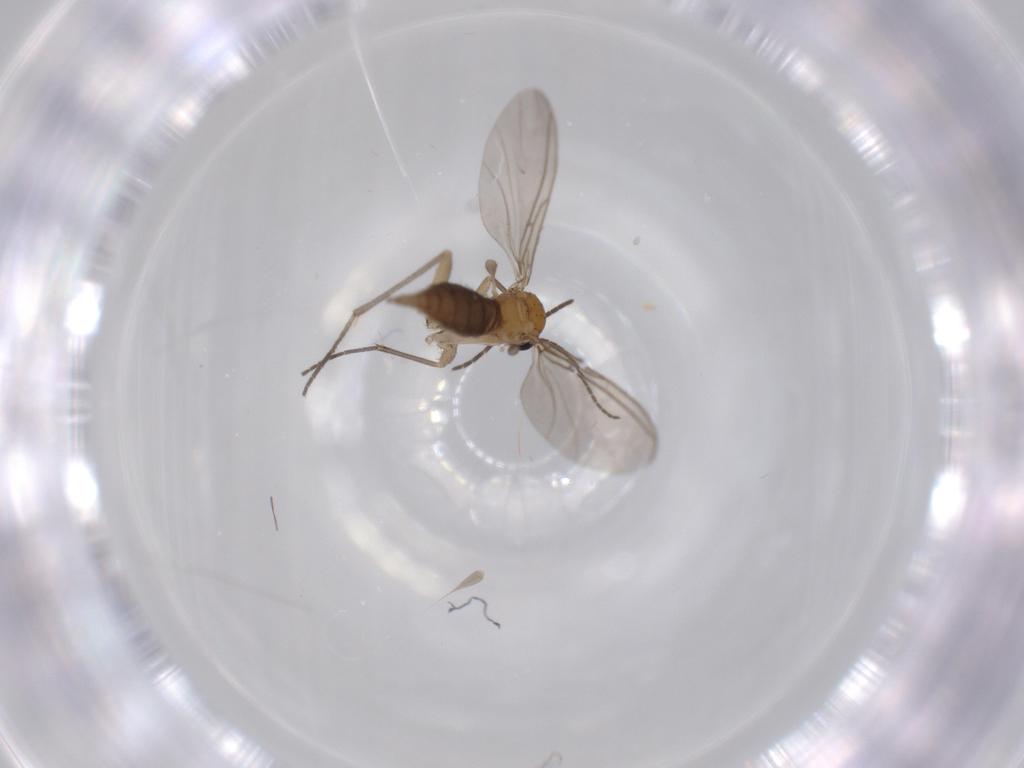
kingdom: Animalia
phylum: Arthropoda
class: Insecta
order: Diptera
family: Sciaridae
